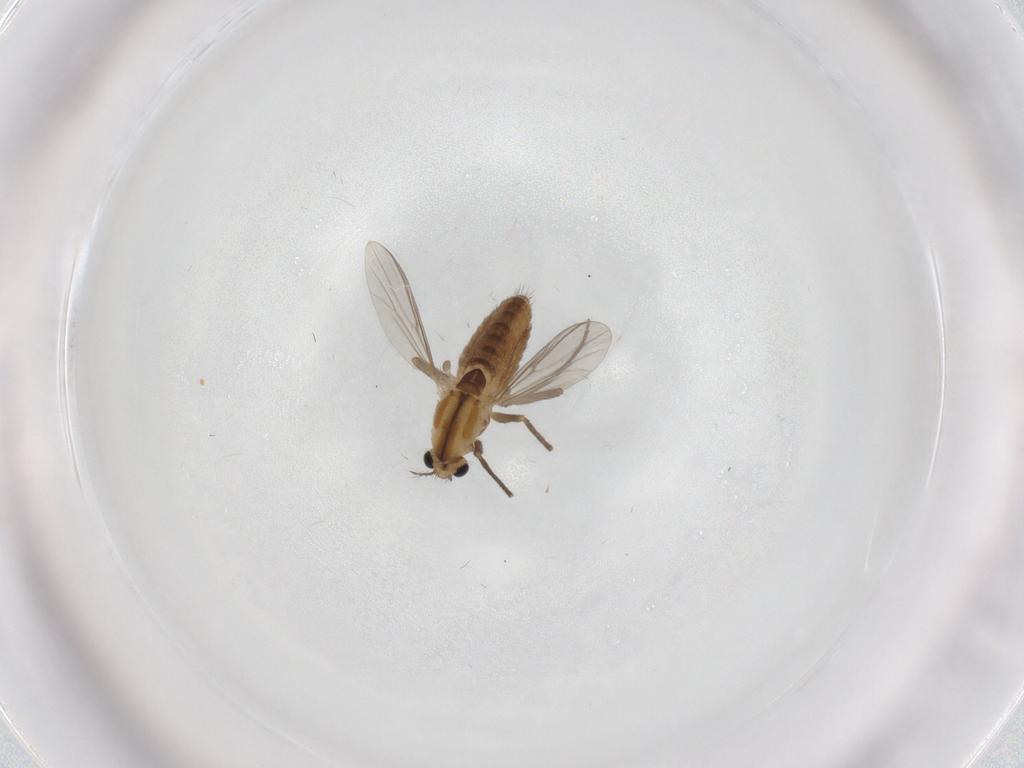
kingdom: Animalia
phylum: Arthropoda
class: Insecta
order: Diptera
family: Chironomidae
